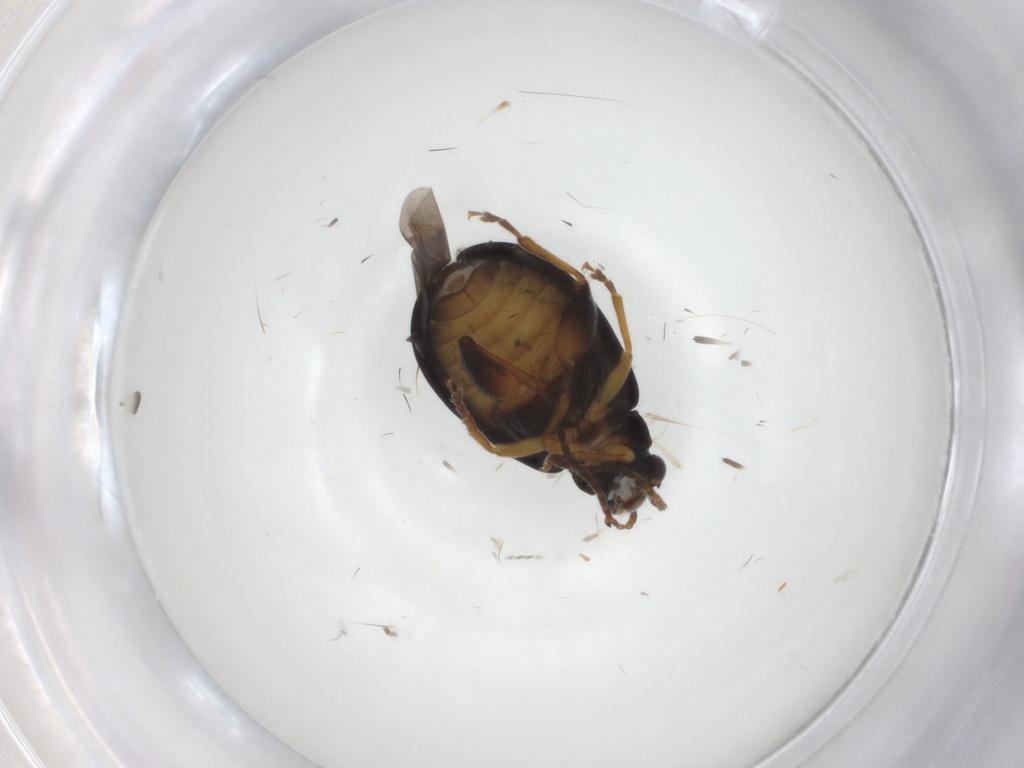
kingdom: Animalia
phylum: Arthropoda
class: Insecta
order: Coleoptera
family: Chrysomelidae
